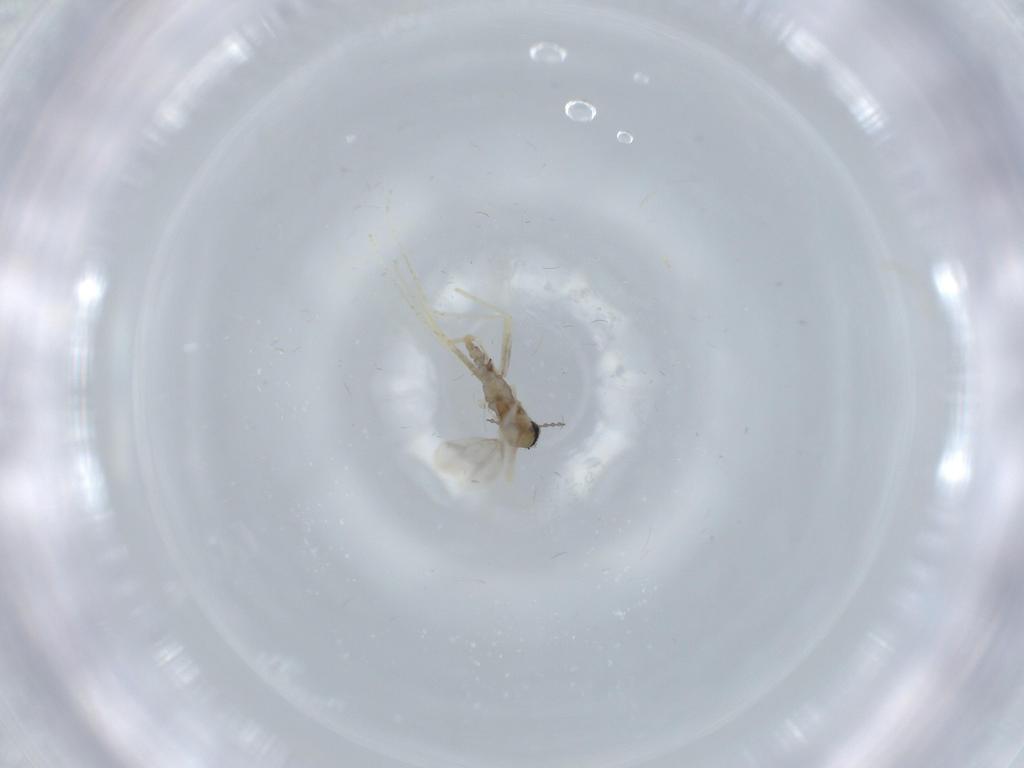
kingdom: Animalia
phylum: Arthropoda
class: Insecta
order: Diptera
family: Cecidomyiidae
